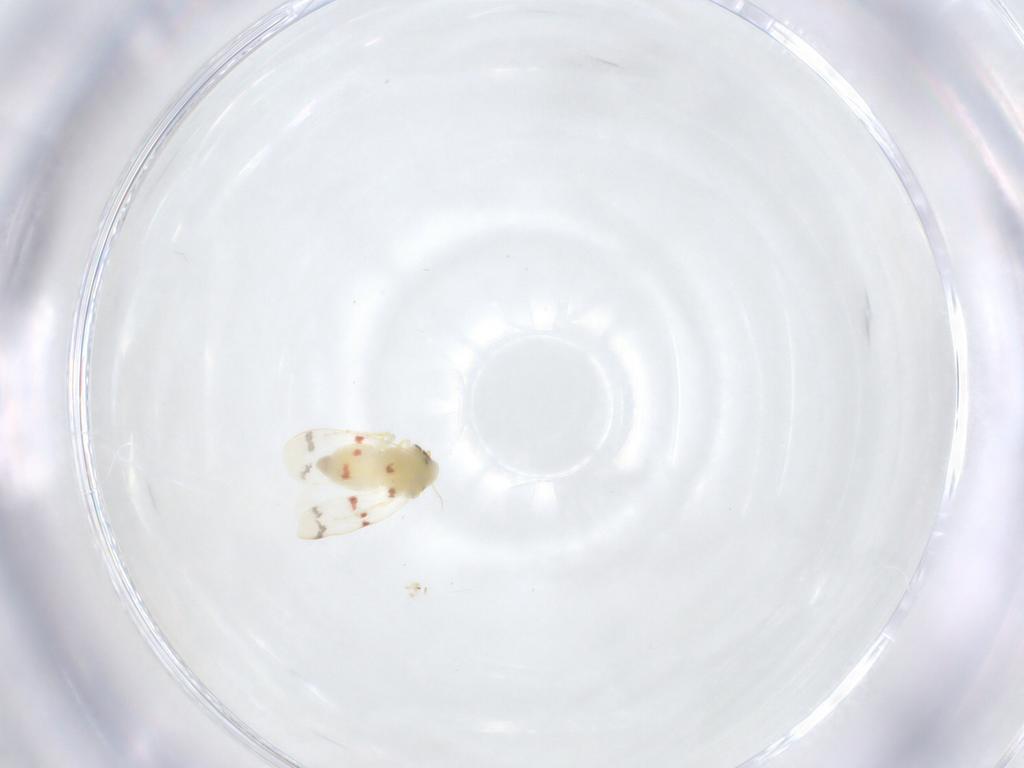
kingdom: Animalia
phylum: Arthropoda
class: Insecta
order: Hemiptera
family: Aleyrodidae
